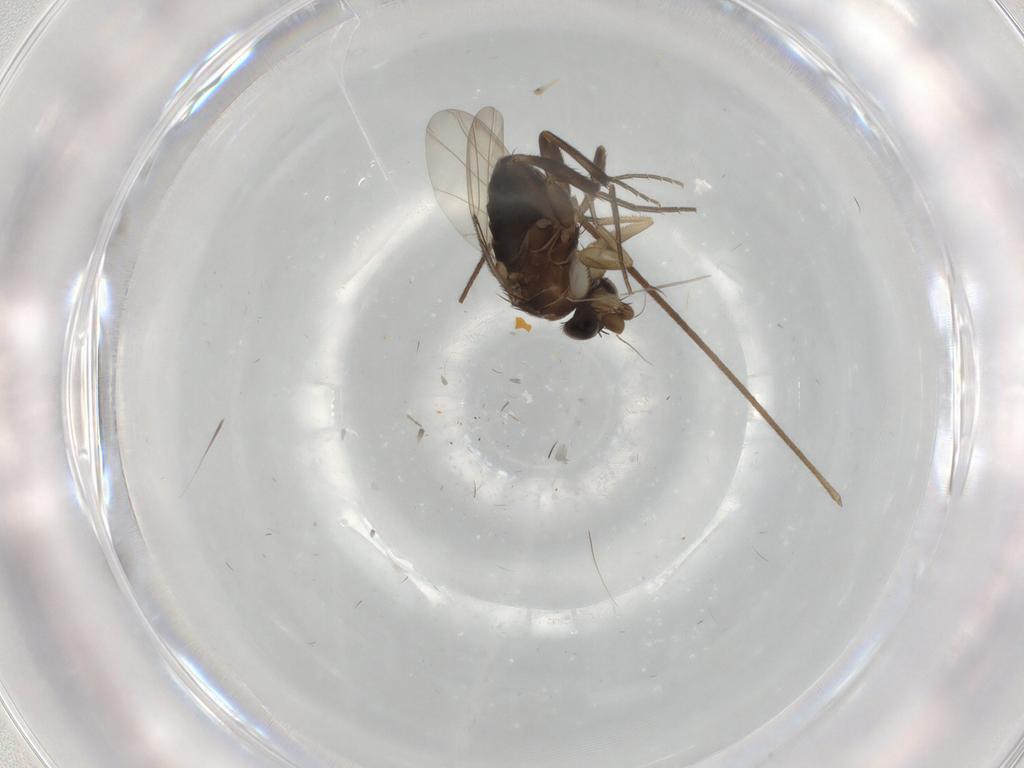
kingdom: Animalia
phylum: Arthropoda
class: Insecta
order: Diptera
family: Phoridae
